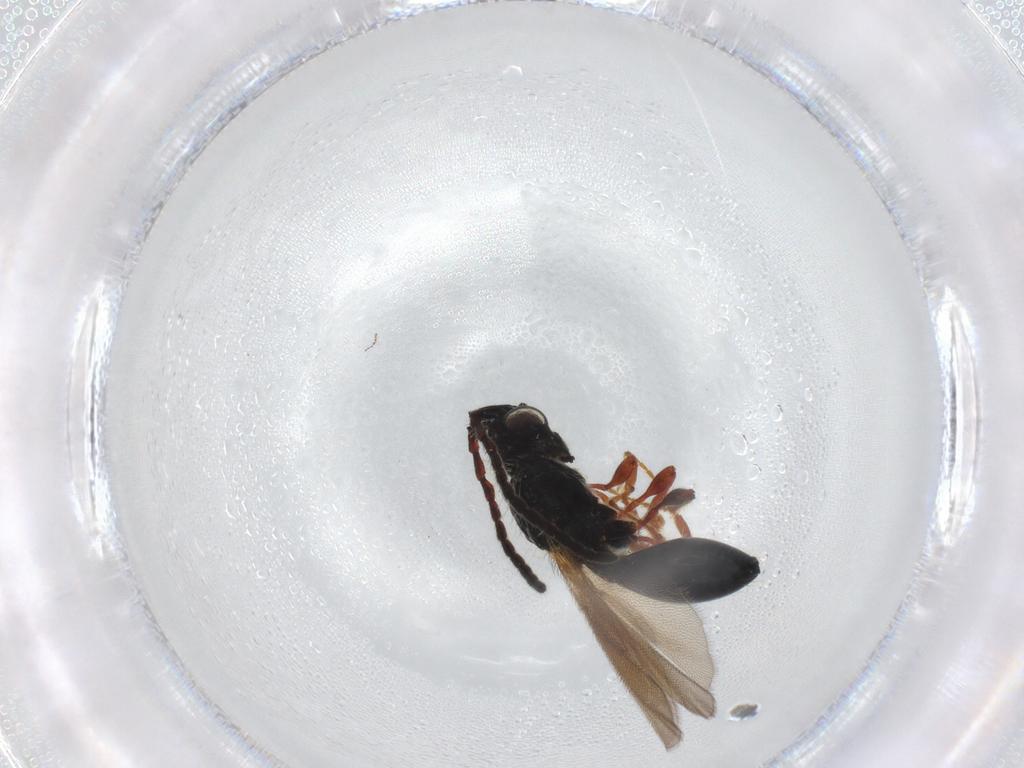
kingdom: Animalia
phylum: Arthropoda
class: Insecta
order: Hymenoptera
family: Diapriidae
